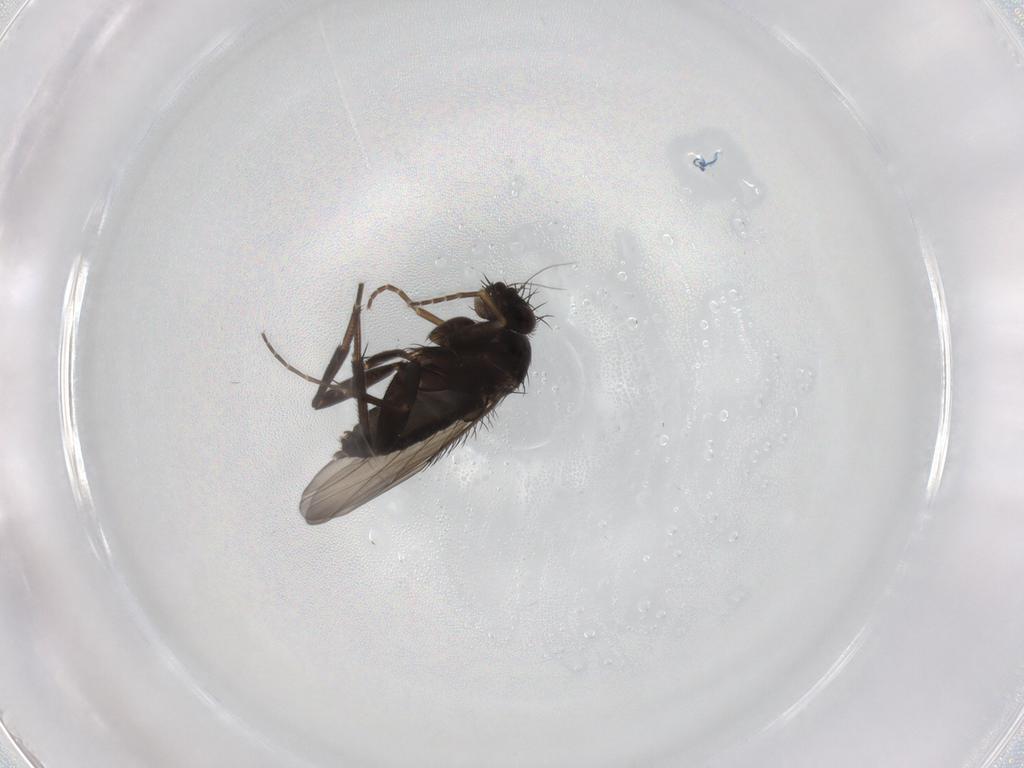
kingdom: Animalia
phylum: Arthropoda
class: Insecta
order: Diptera
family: Phoridae
